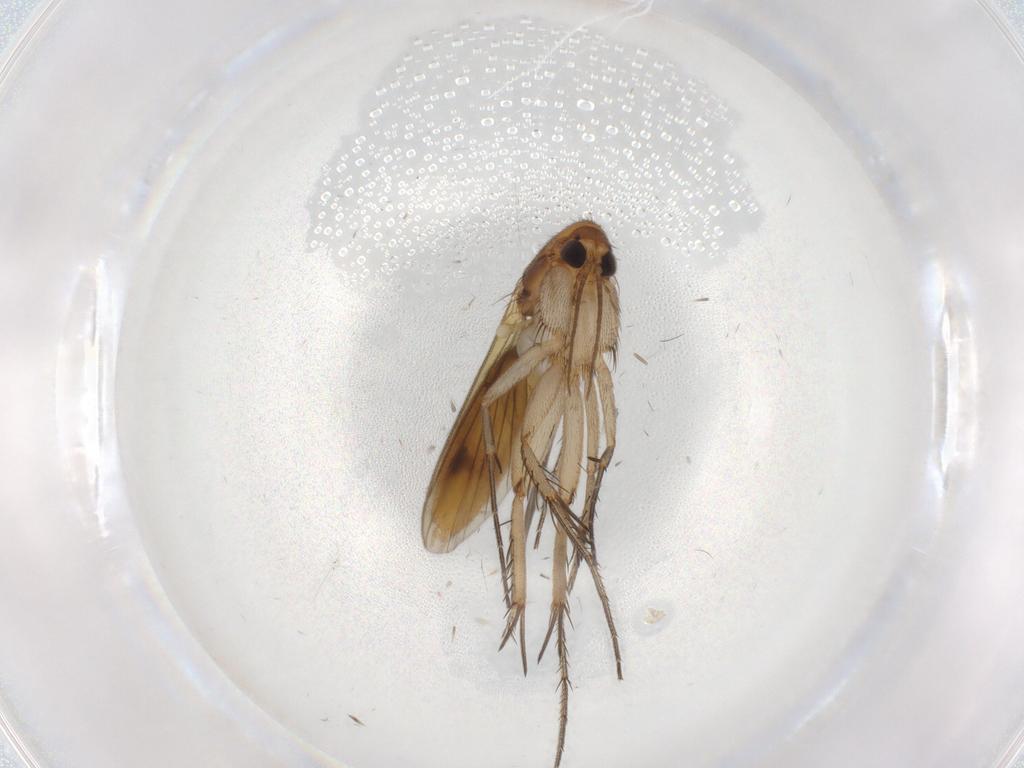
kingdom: Animalia
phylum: Arthropoda
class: Insecta
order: Diptera
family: Mycetophilidae
